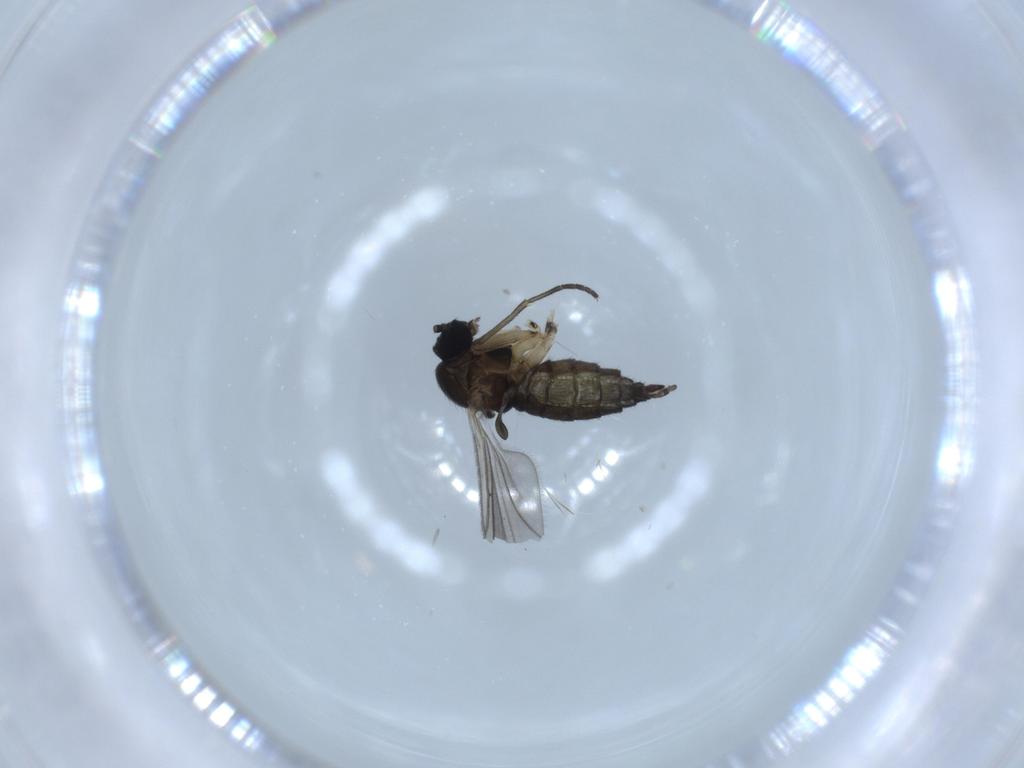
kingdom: Animalia
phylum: Arthropoda
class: Insecta
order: Diptera
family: Sciaridae
